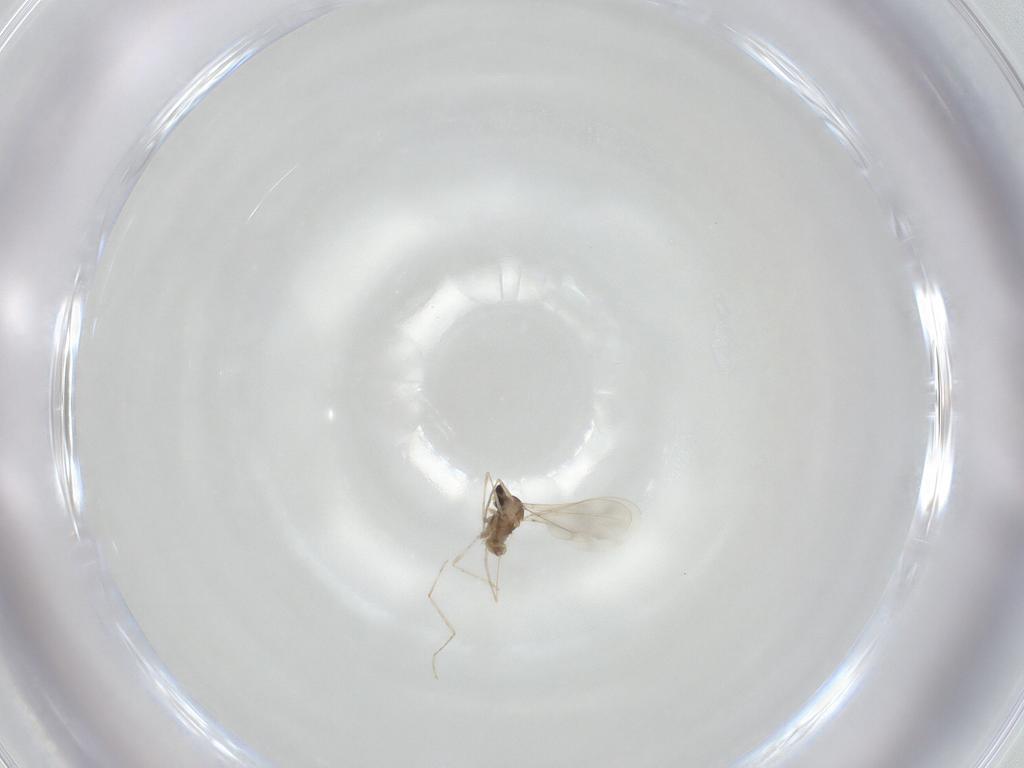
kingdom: Animalia
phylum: Arthropoda
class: Insecta
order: Diptera
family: Cecidomyiidae
